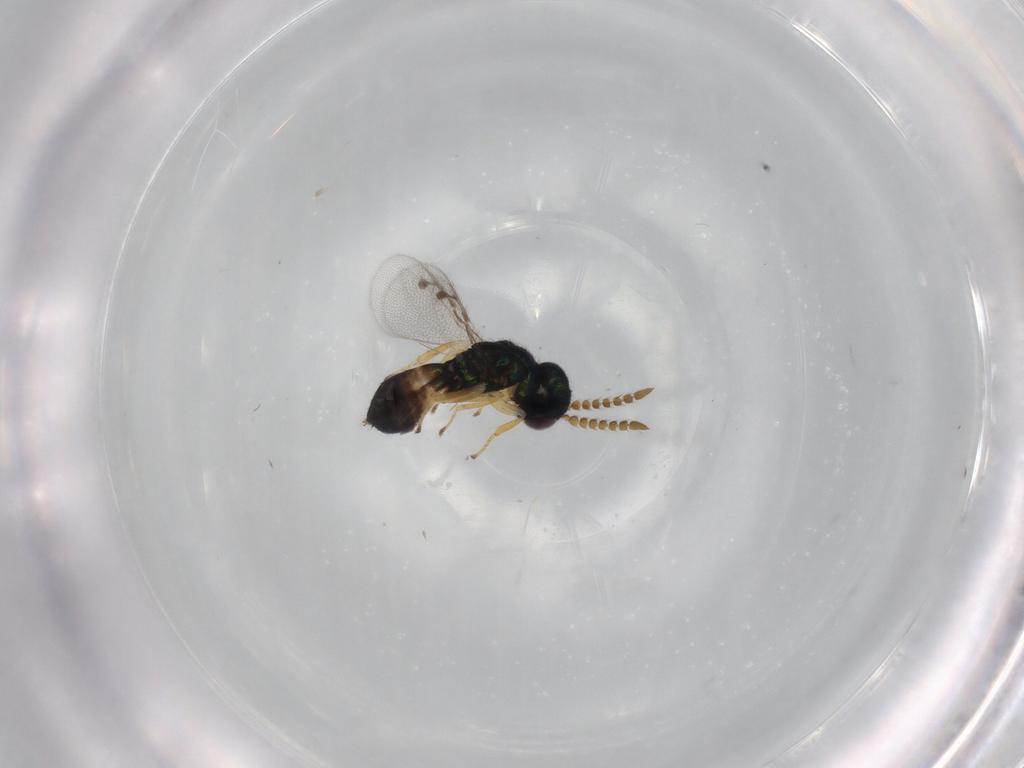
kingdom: Animalia
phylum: Arthropoda
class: Insecta
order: Hymenoptera
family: Pirenidae
